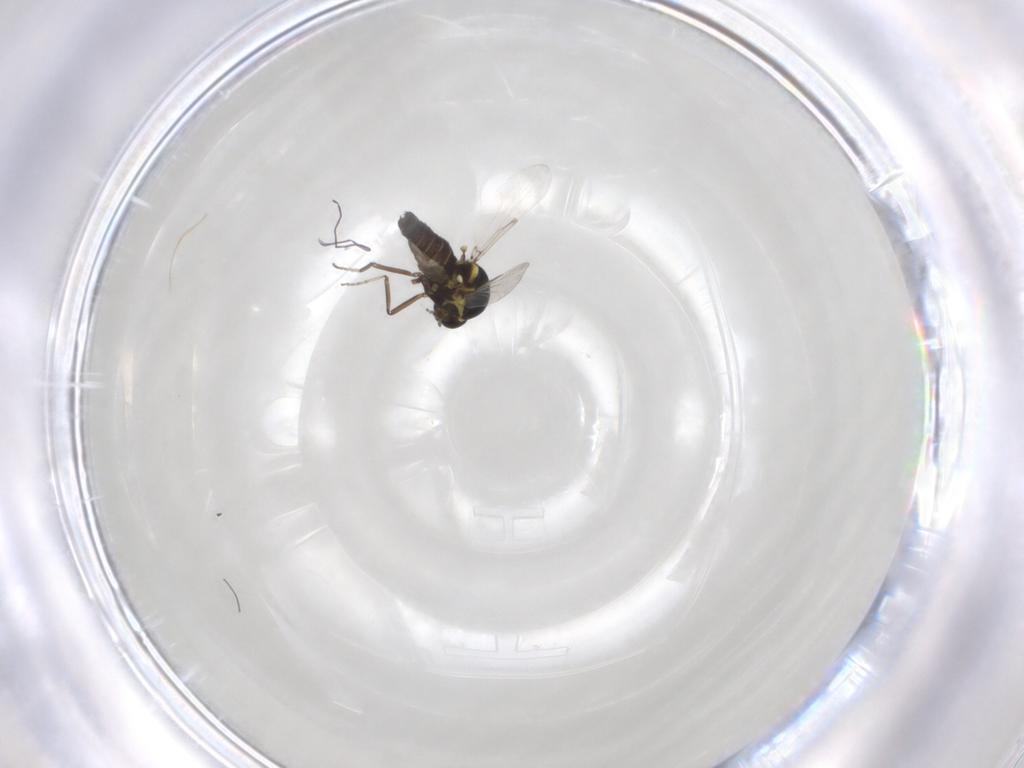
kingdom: Animalia
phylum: Arthropoda
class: Insecta
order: Diptera
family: Ceratopogonidae
